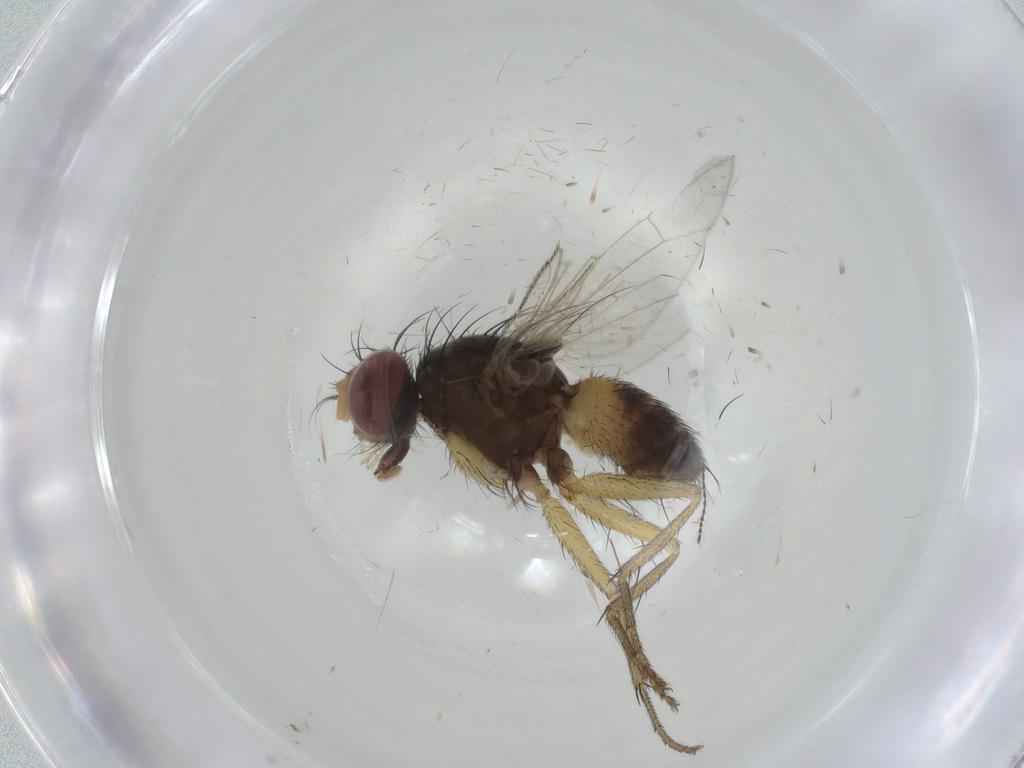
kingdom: Animalia
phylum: Arthropoda
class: Insecta
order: Diptera
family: Muscidae
